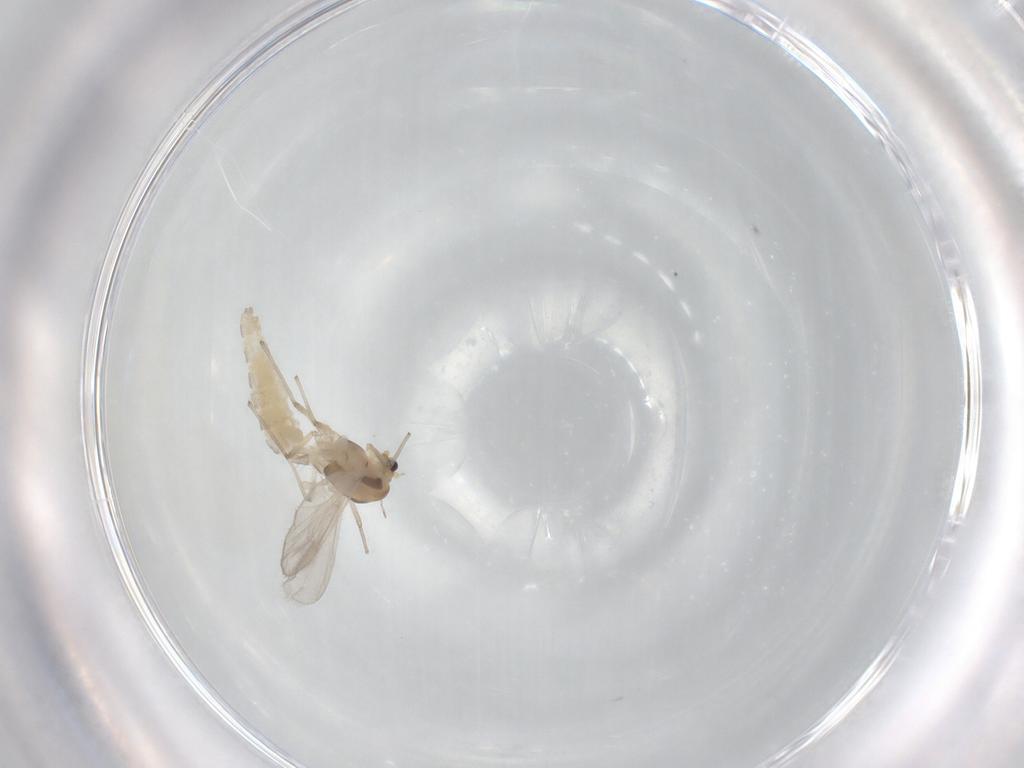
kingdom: Animalia
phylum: Arthropoda
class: Insecta
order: Diptera
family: Chironomidae
